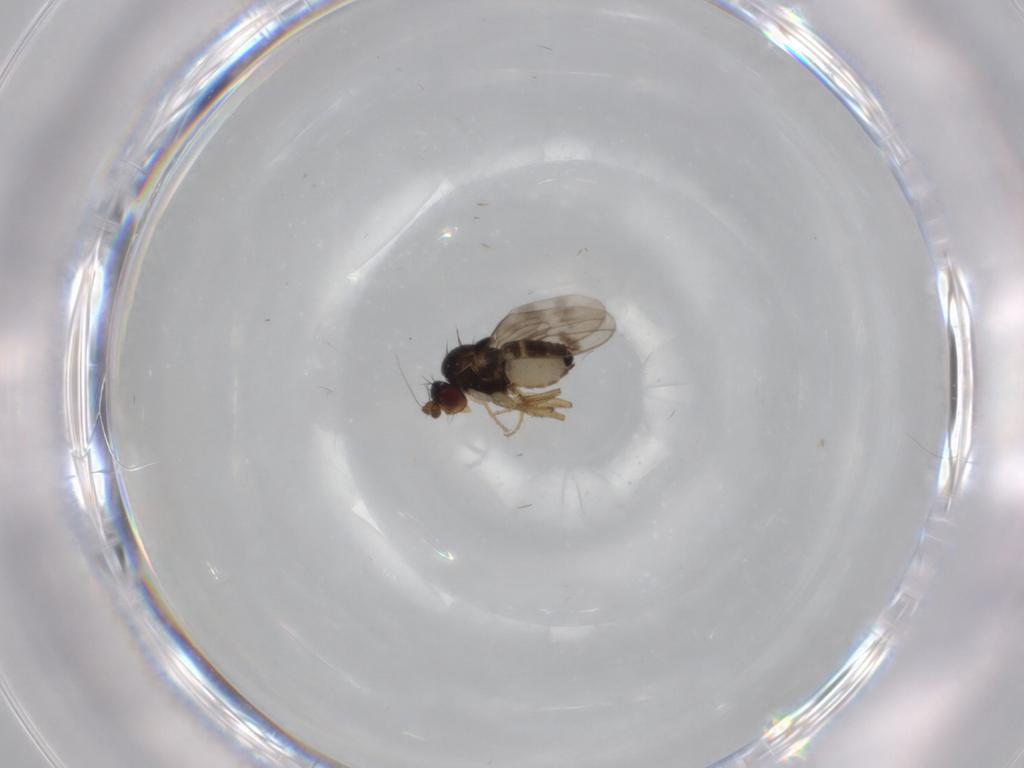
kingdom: Animalia
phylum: Arthropoda
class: Insecta
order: Diptera
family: Sphaeroceridae
